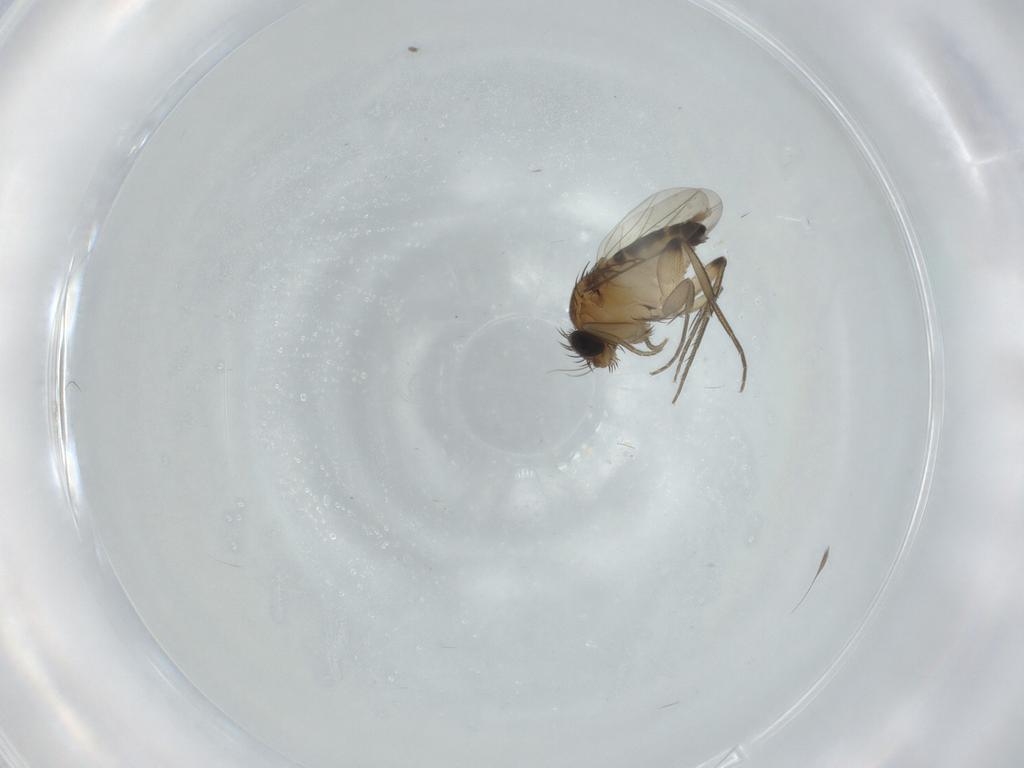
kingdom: Animalia
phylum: Arthropoda
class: Insecta
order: Diptera
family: Phoridae
